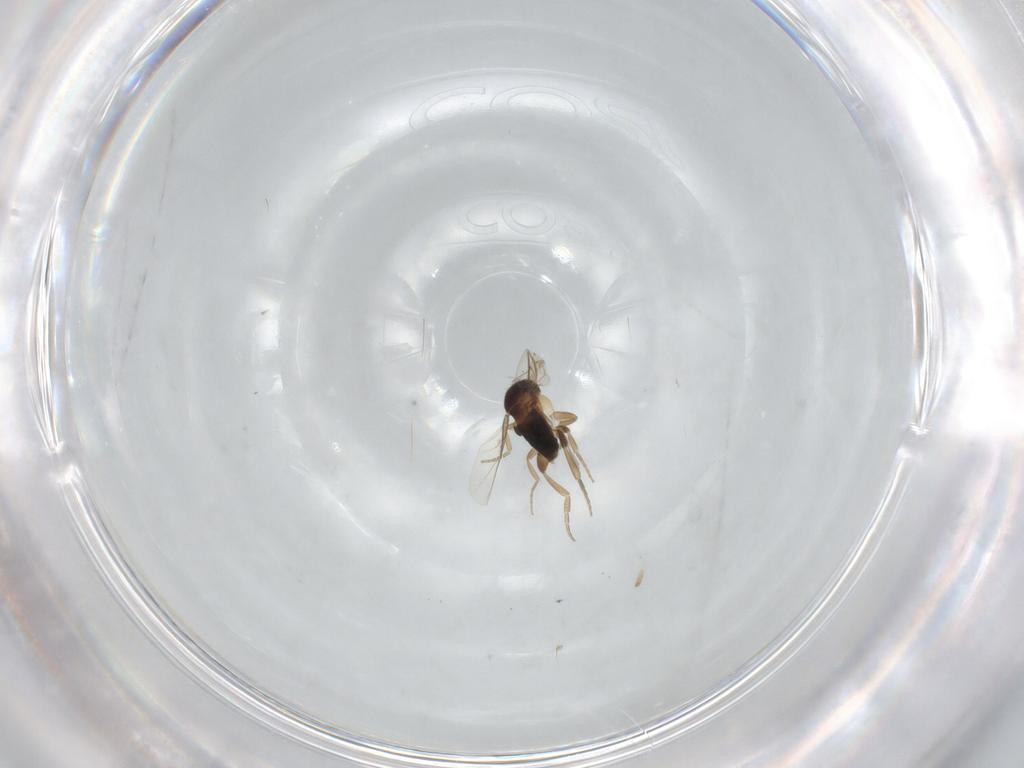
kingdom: Animalia
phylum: Arthropoda
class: Insecta
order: Diptera
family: Phoridae
